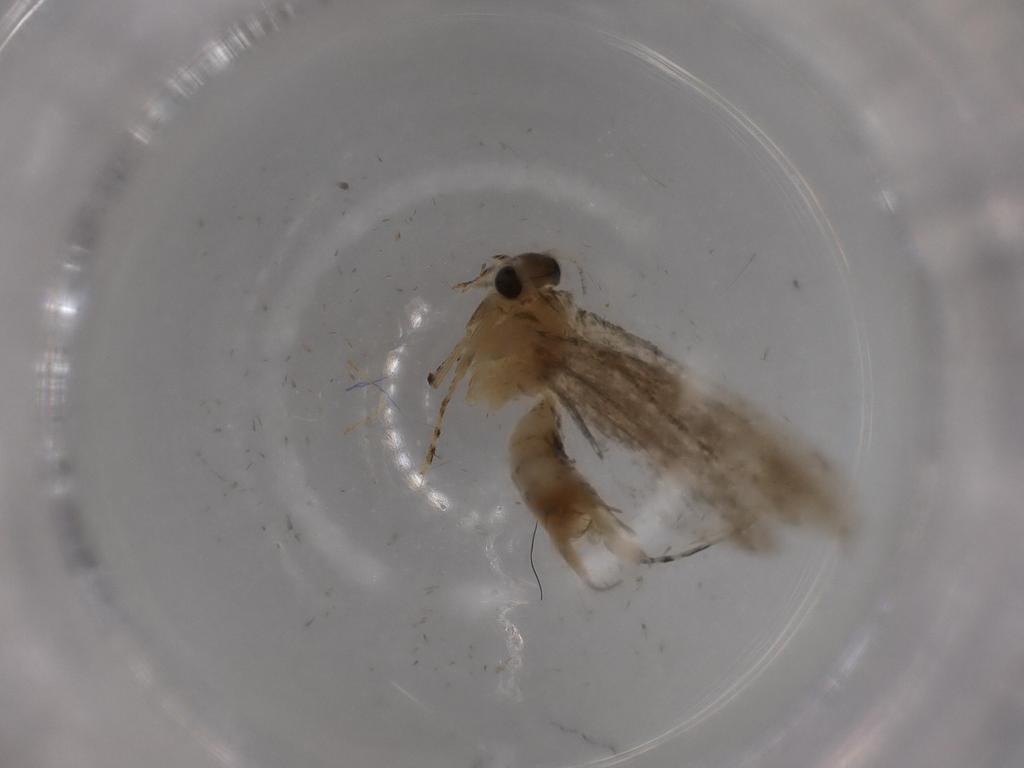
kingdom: Animalia
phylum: Arthropoda
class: Insecta
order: Lepidoptera
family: Tineidae
